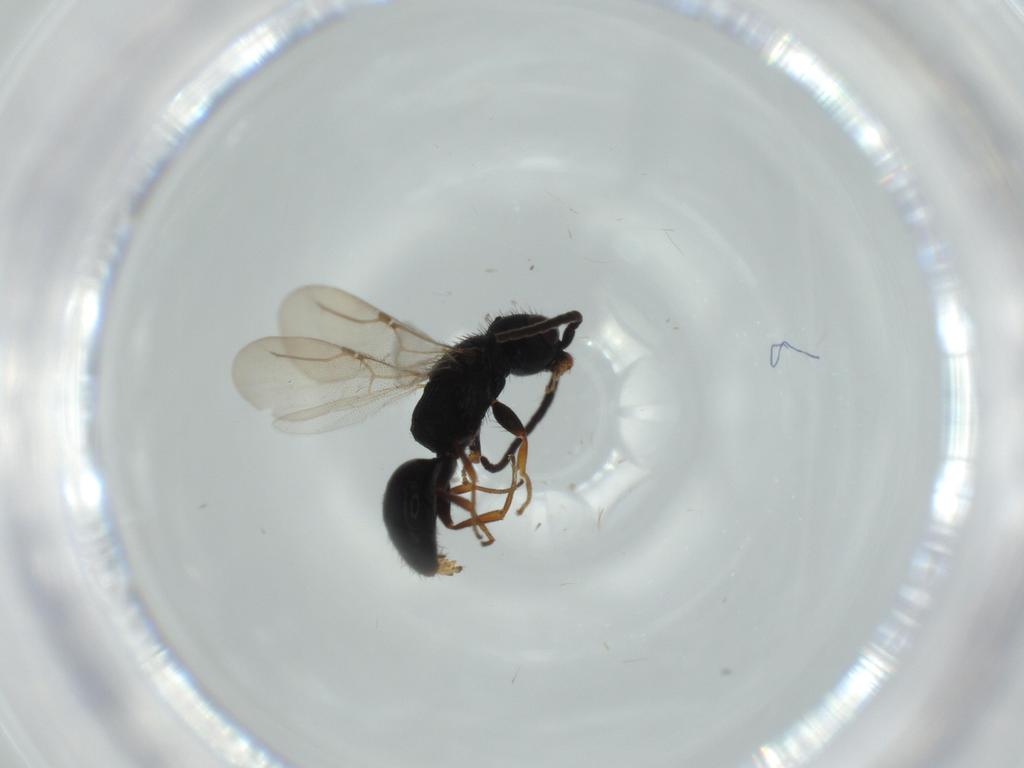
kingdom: Animalia
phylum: Arthropoda
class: Insecta
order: Hymenoptera
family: Bethylidae
